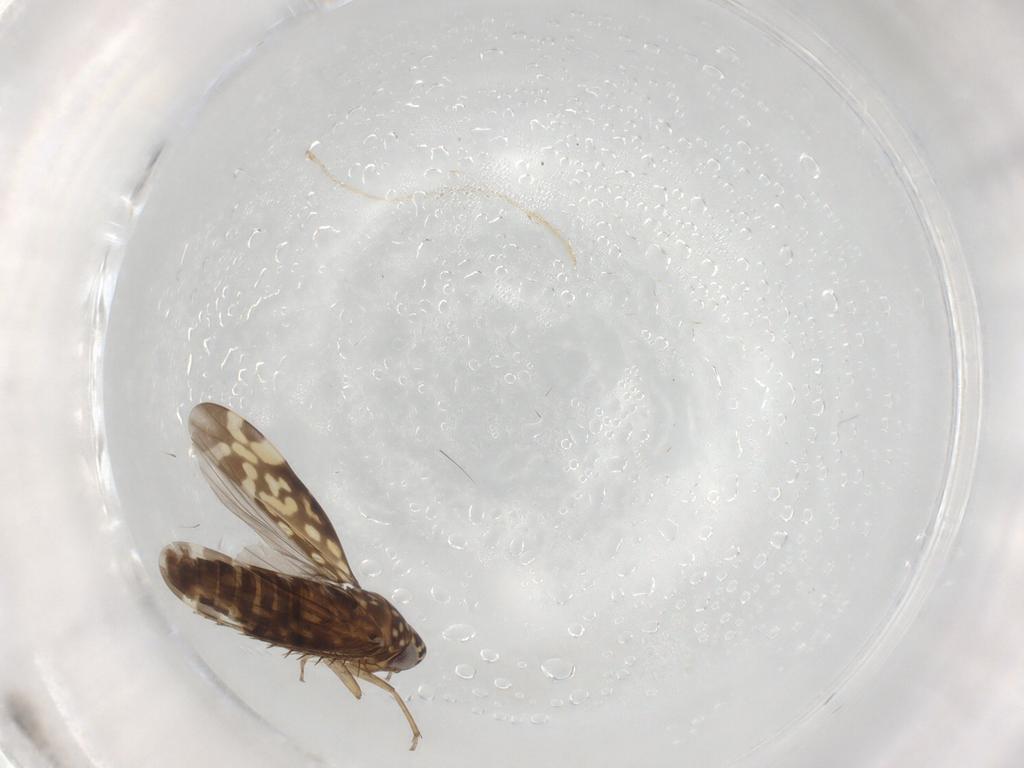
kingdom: Animalia
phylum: Arthropoda
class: Insecta
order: Hemiptera
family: Cicadellidae
